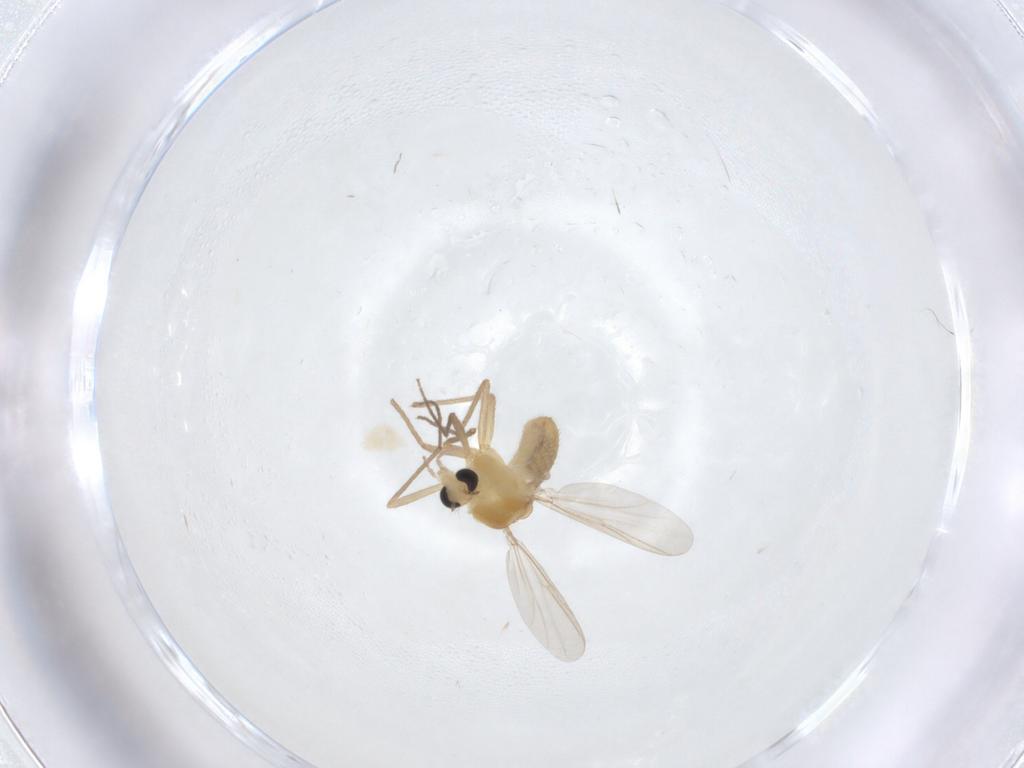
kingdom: Animalia
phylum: Arthropoda
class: Insecta
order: Diptera
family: Chironomidae
